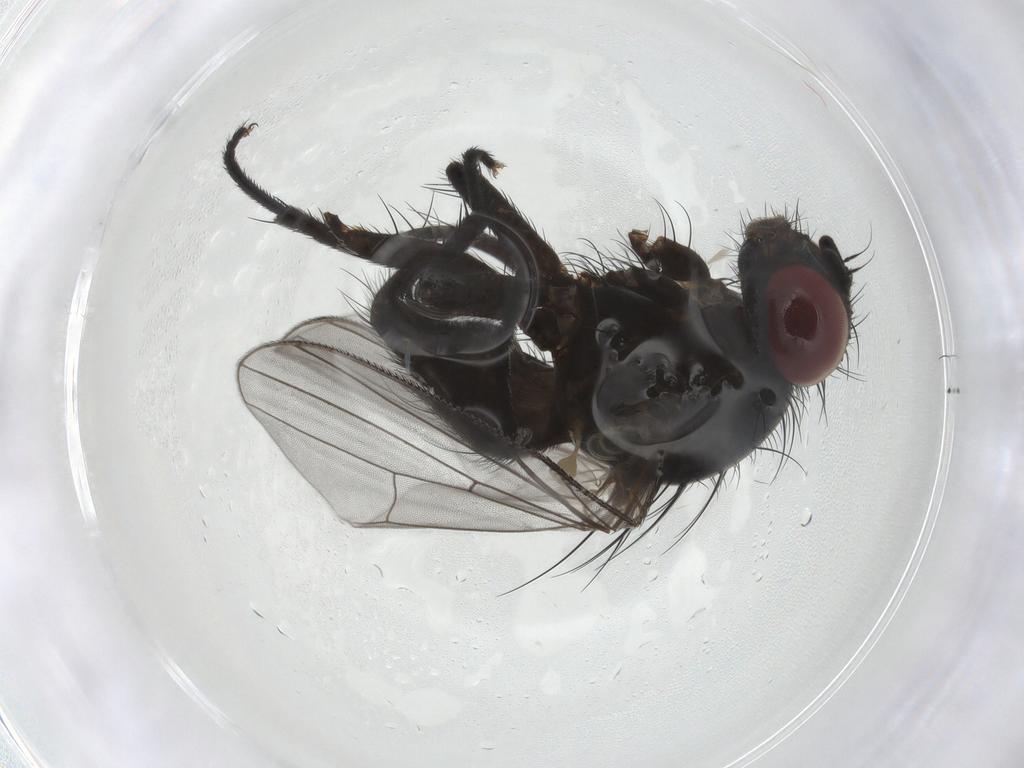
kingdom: Animalia
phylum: Arthropoda
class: Insecta
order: Diptera
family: Fanniidae
